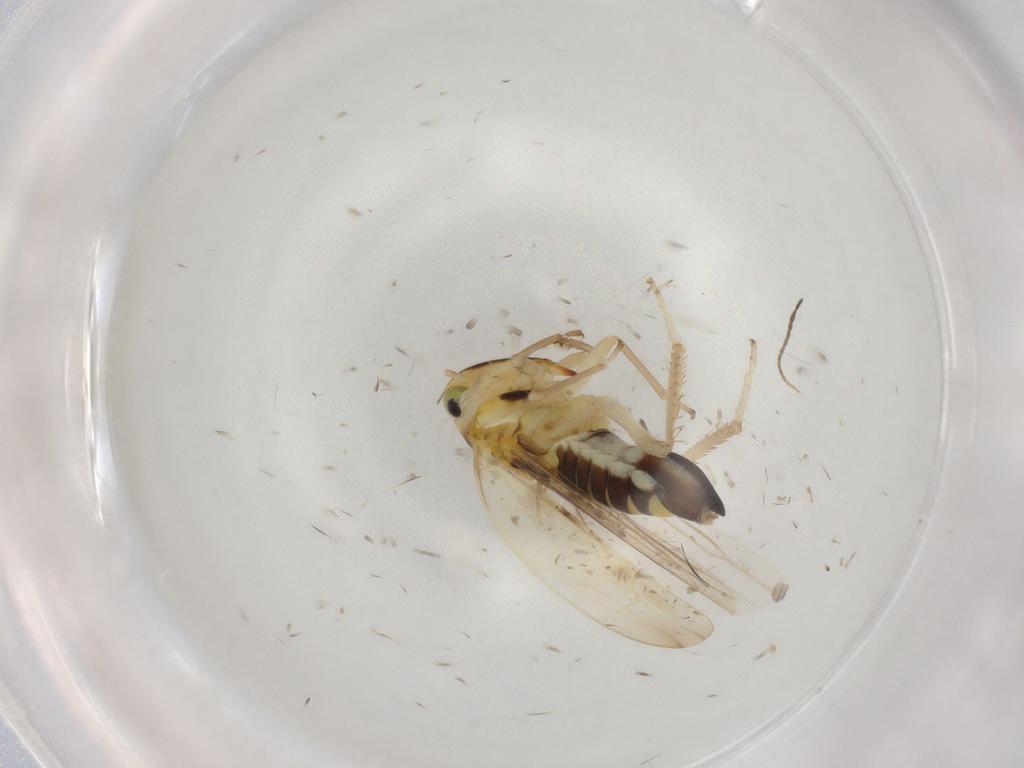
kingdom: Animalia
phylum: Arthropoda
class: Insecta
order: Hemiptera
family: Cicadellidae
